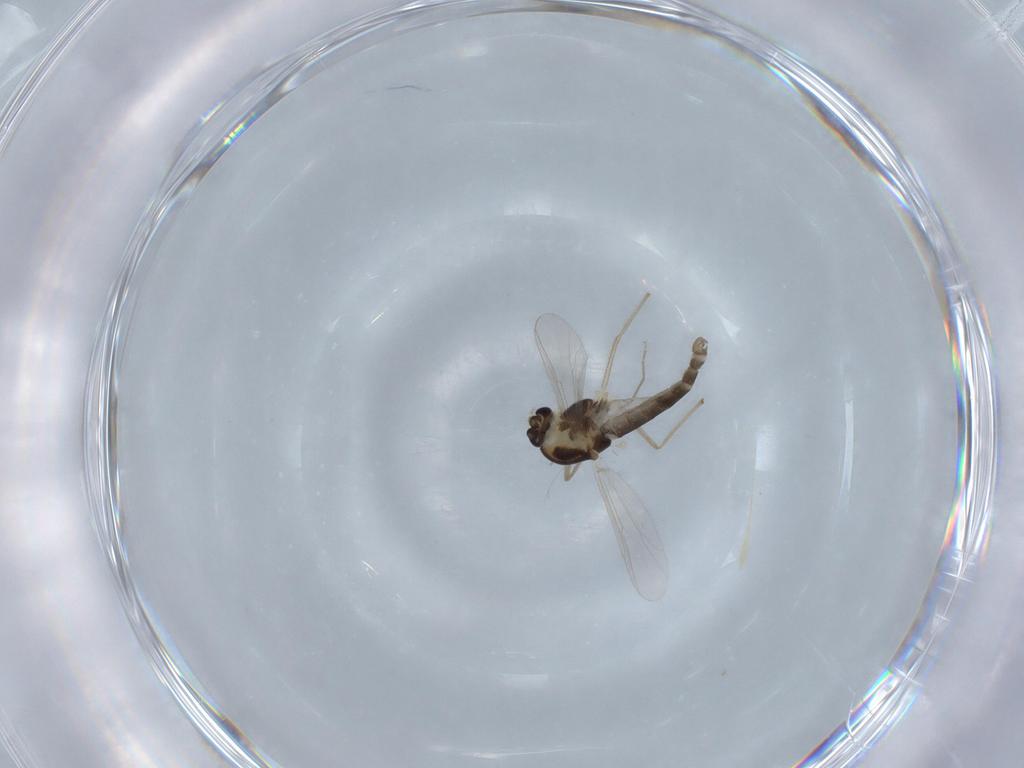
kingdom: Animalia
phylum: Arthropoda
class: Insecta
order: Diptera
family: Chironomidae
